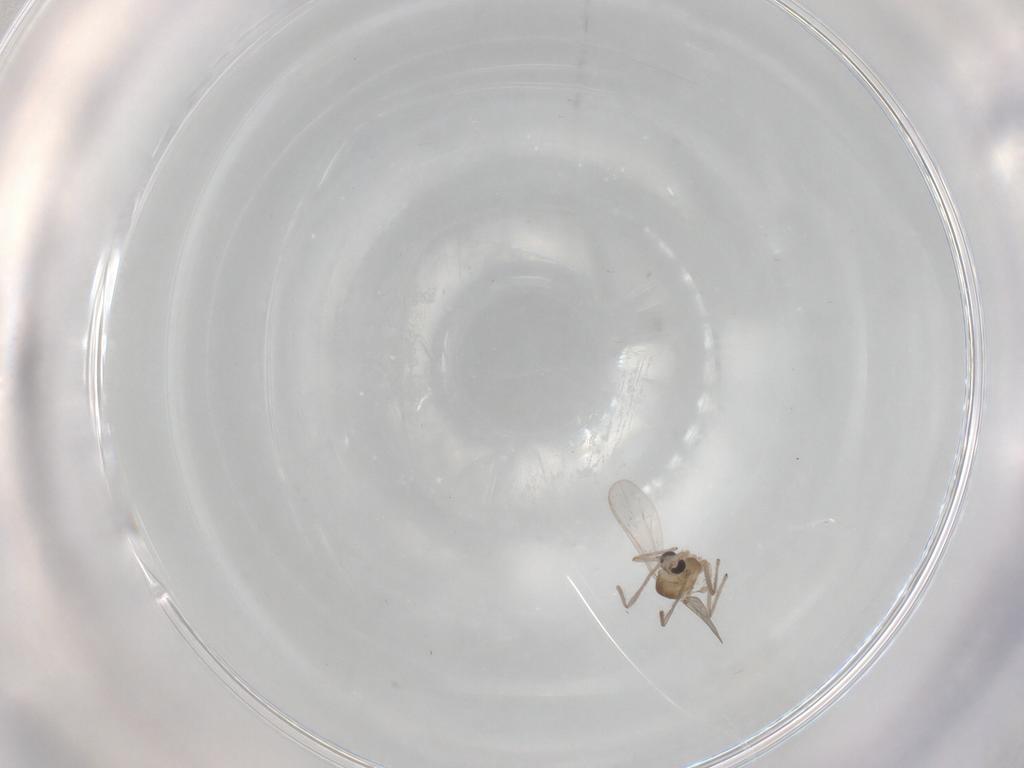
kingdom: Animalia
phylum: Arthropoda
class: Insecta
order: Diptera
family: Chironomidae
